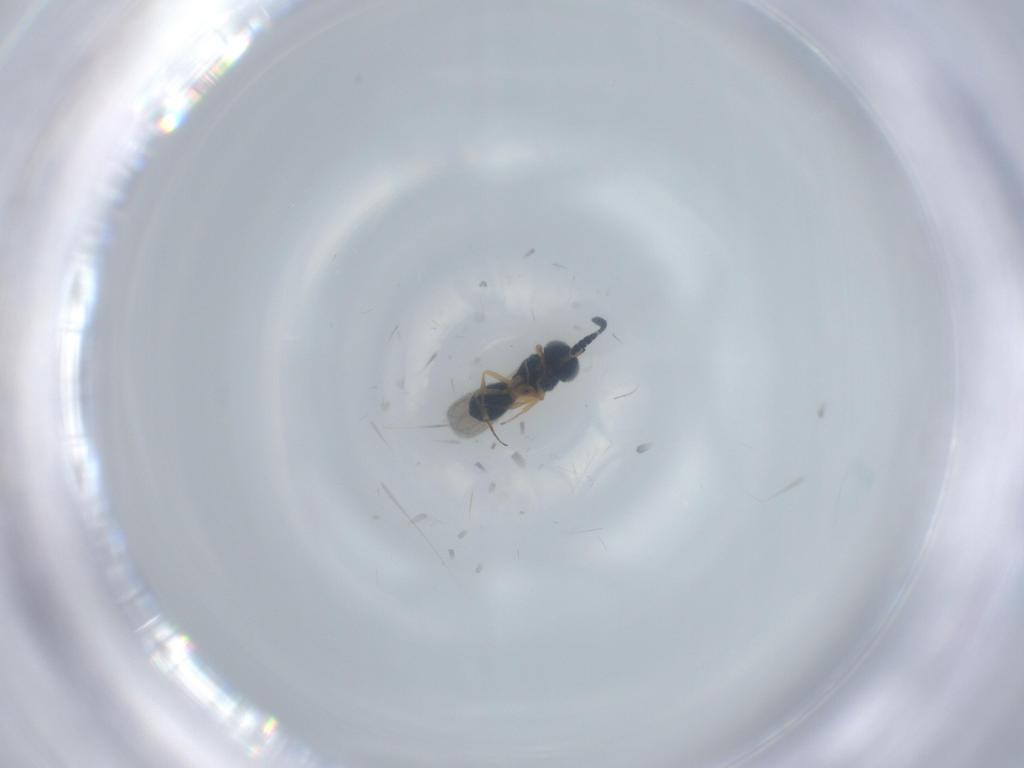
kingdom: Animalia
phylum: Arthropoda
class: Insecta
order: Hymenoptera
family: Scelionidae
